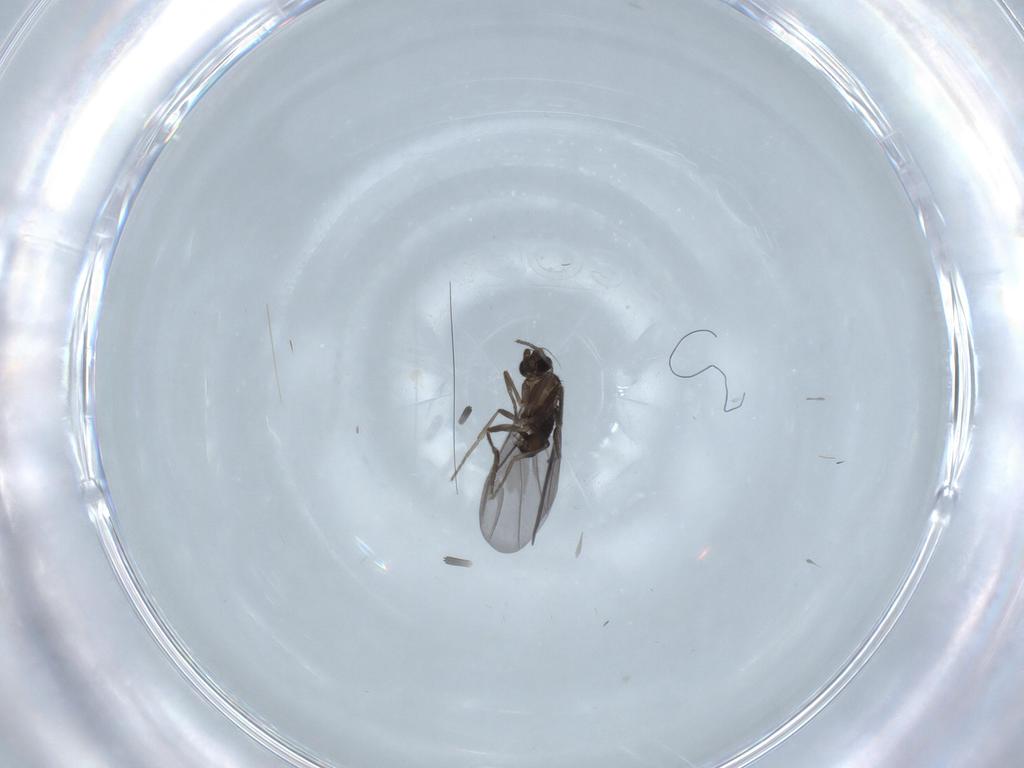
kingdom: Animalia
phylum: Arthropoda
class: Insecta
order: Diptera
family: Phoridae
